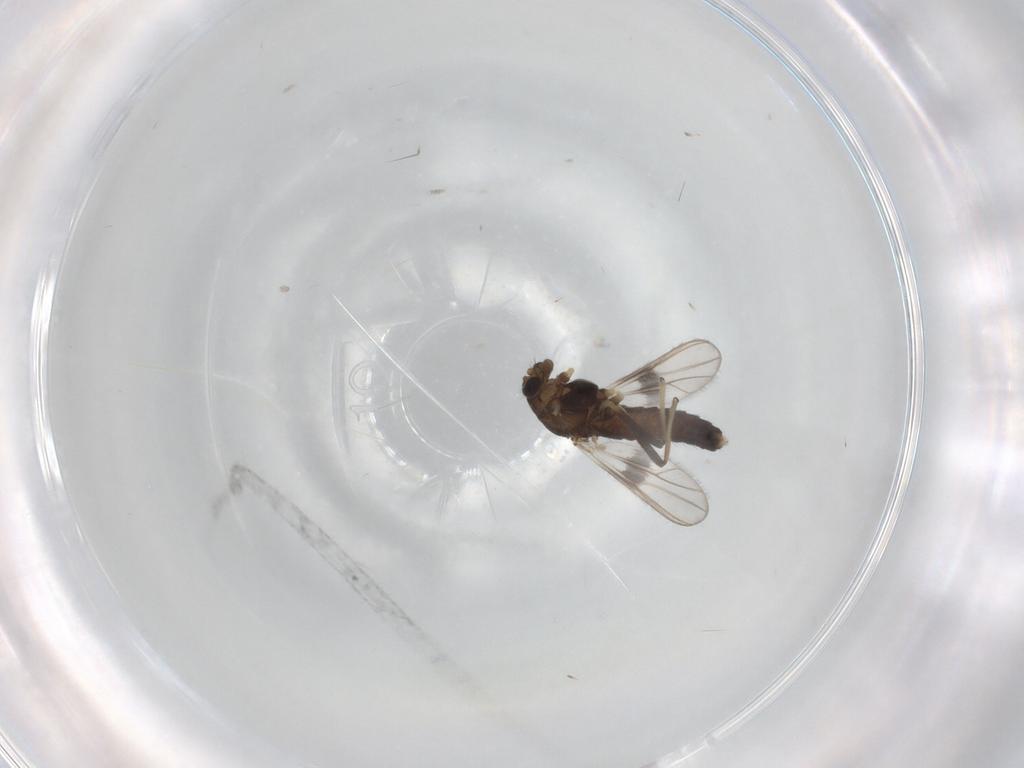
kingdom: Animalia
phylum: Arthropoda
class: Insecta
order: Diptera
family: Chironomidae
